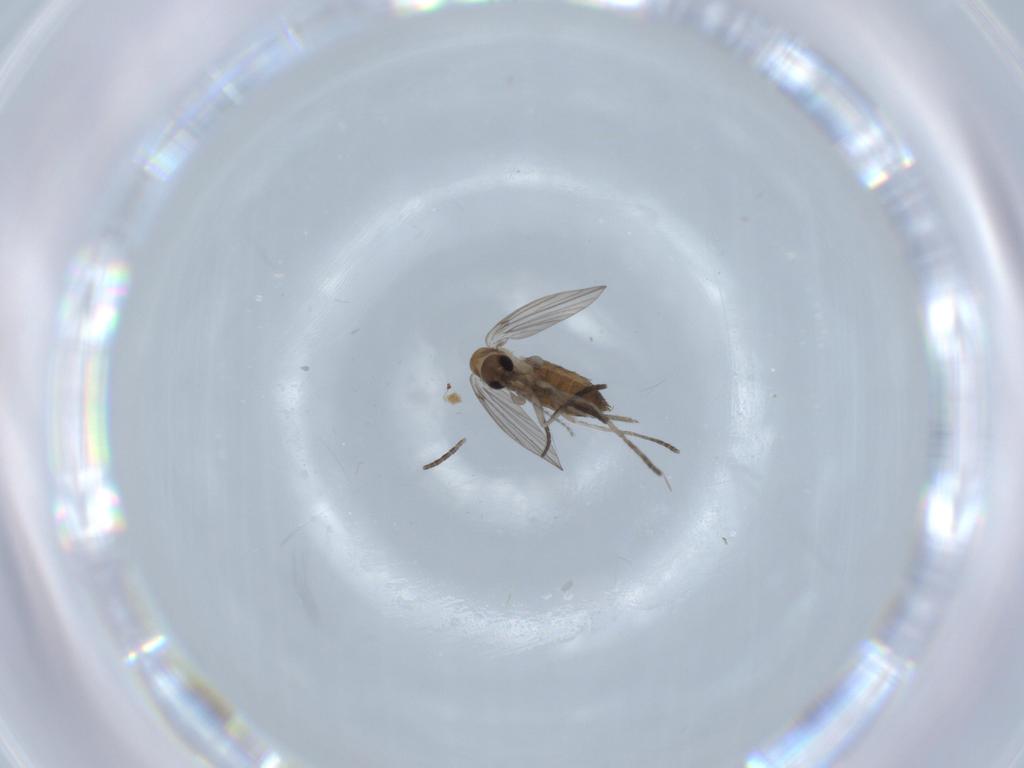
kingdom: Animalia
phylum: Arthropoda
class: Insecta
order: Diptera
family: Psychodidae
